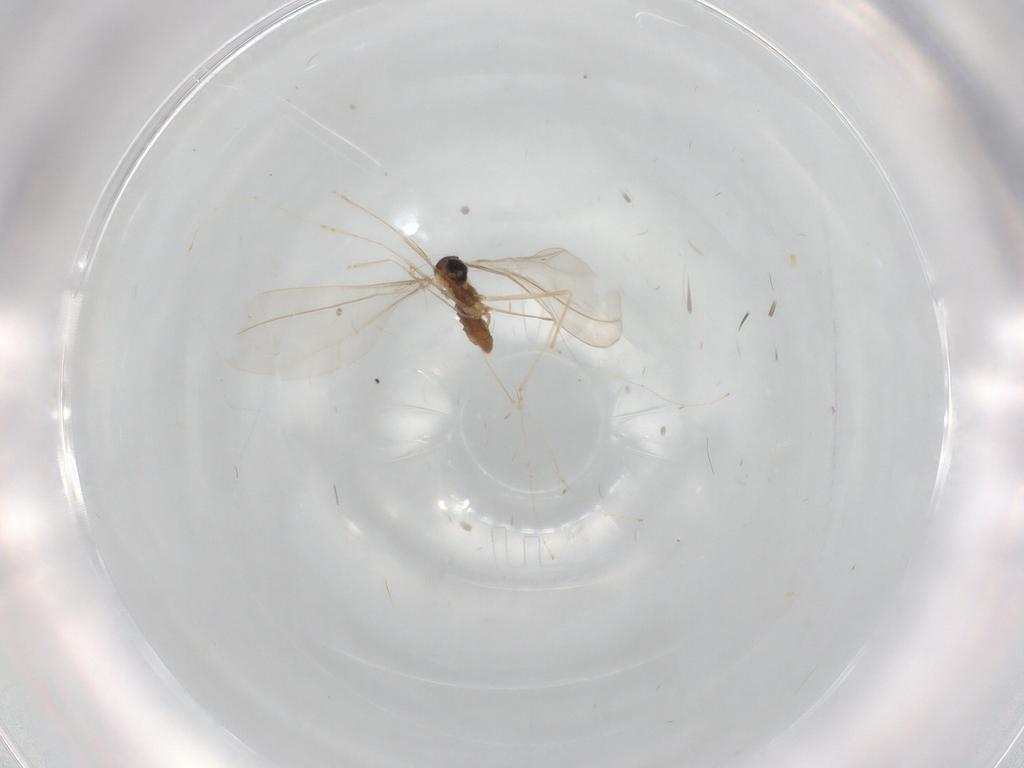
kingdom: Animalia
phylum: Arthropoda
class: Insecta
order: Diptera
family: Cecidomyiidae
